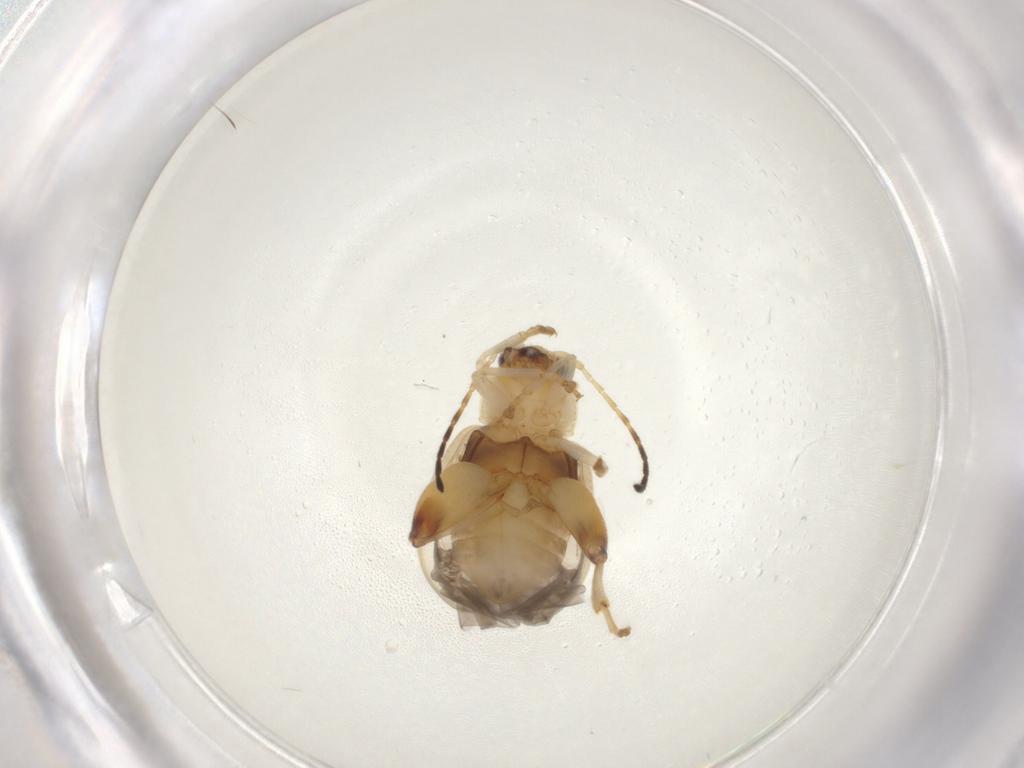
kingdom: Animalia
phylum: Arthropoda
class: Insecta
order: Coleoptera
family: Chrysomelidae
